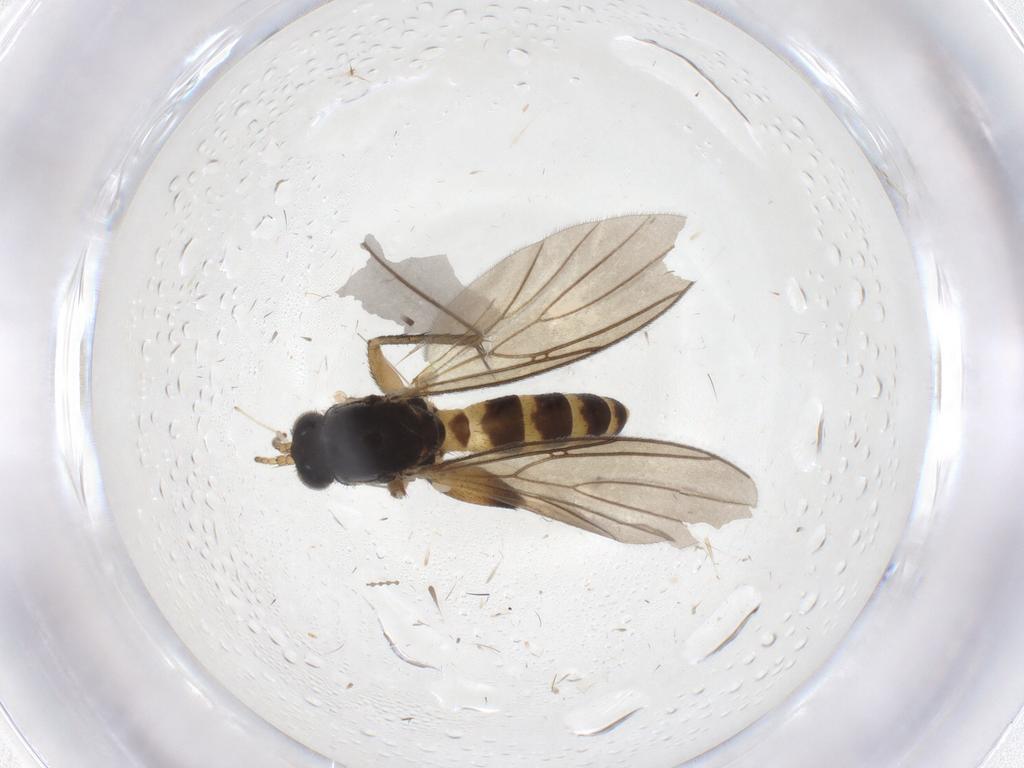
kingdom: Animalia
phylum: Arthropoda
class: Insecta
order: Diptera
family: Mycetophilidae
